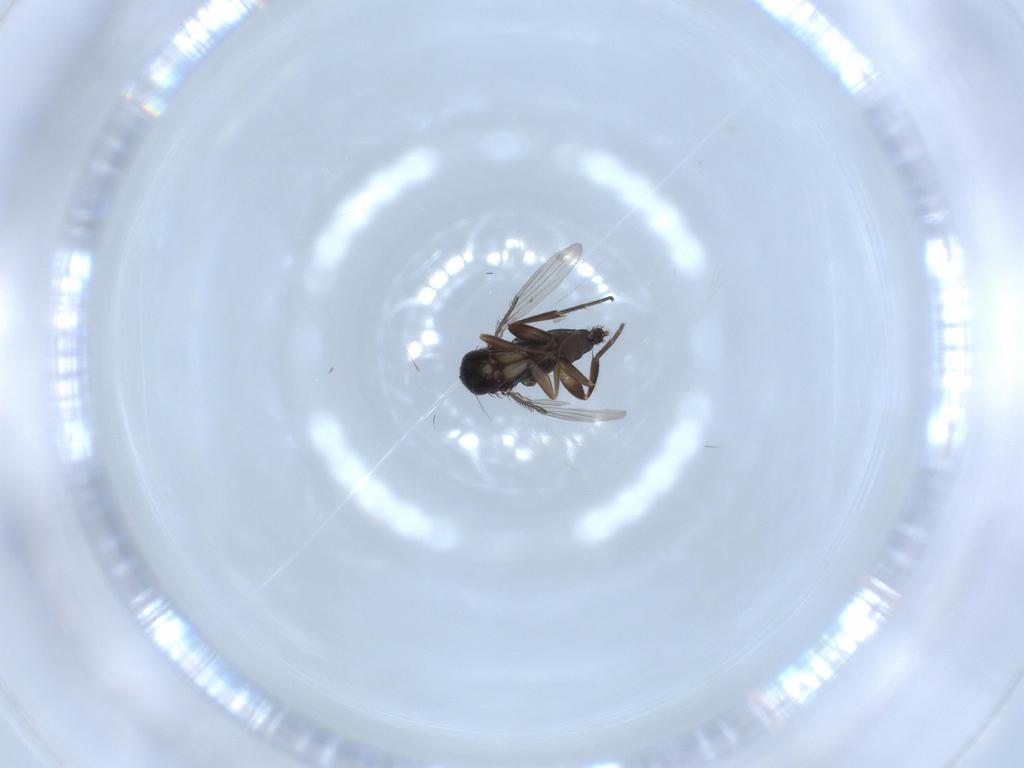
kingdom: Animalia
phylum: Arthropoda
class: Insecta
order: Diptera
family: Phoridae
